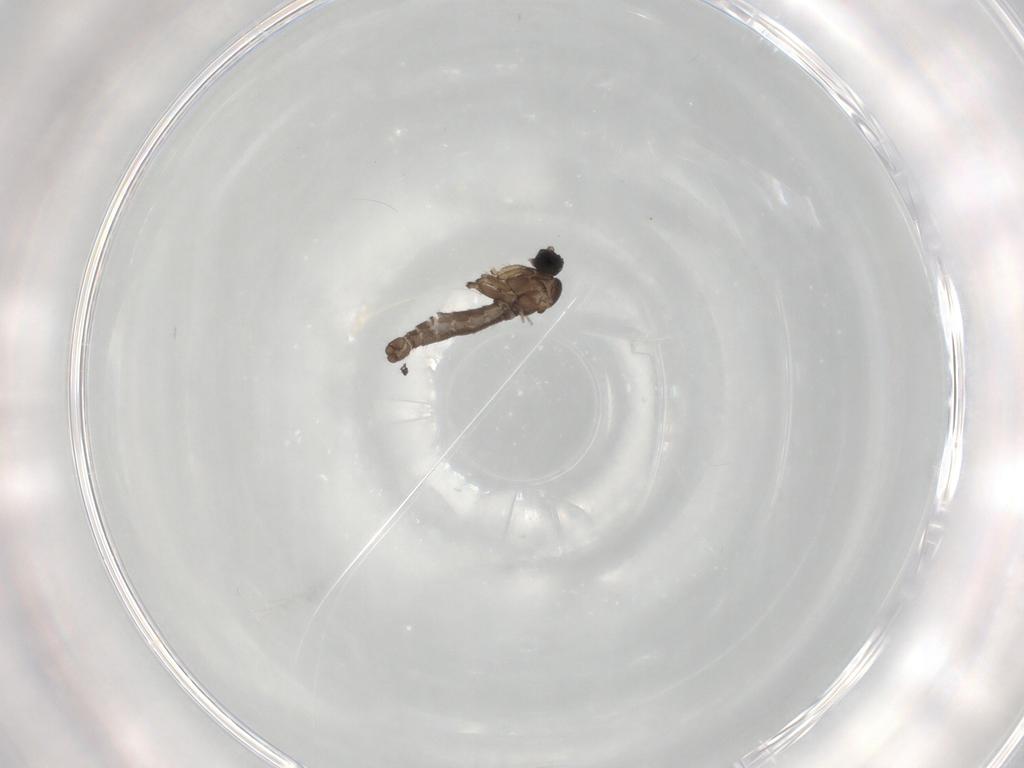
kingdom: Animalia
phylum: Arthropoda
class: Insecta
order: Diptera
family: Sciaridae
